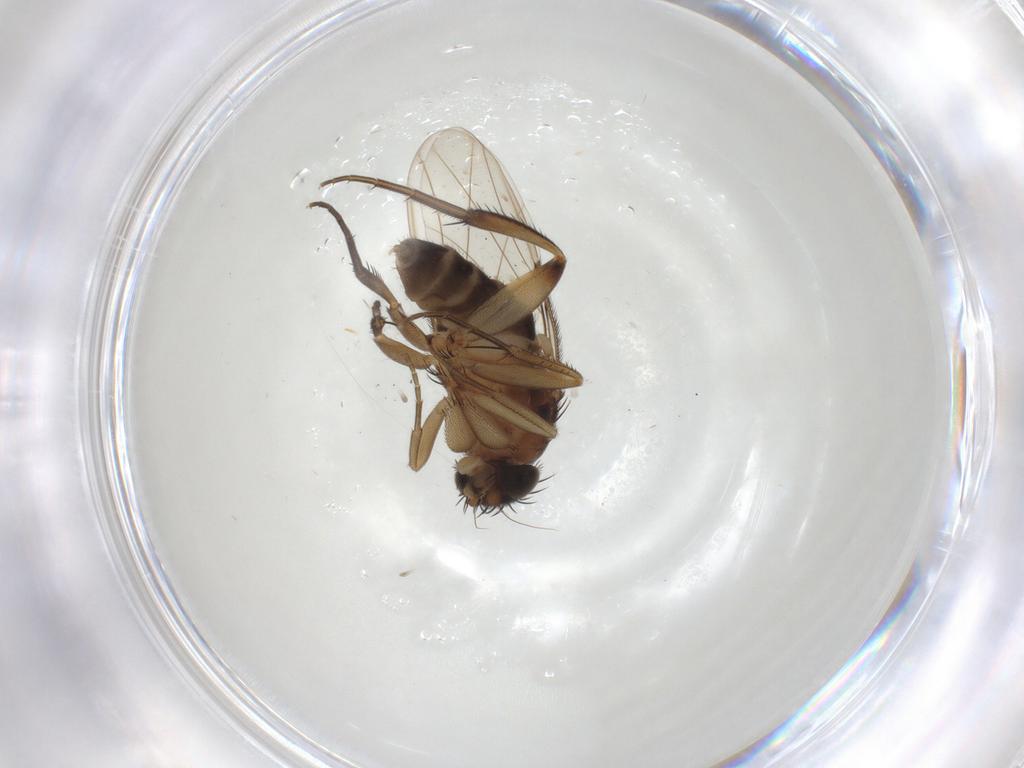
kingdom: Animalia
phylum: Arthropoda
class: Insecta
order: Diptera
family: Phoridae
